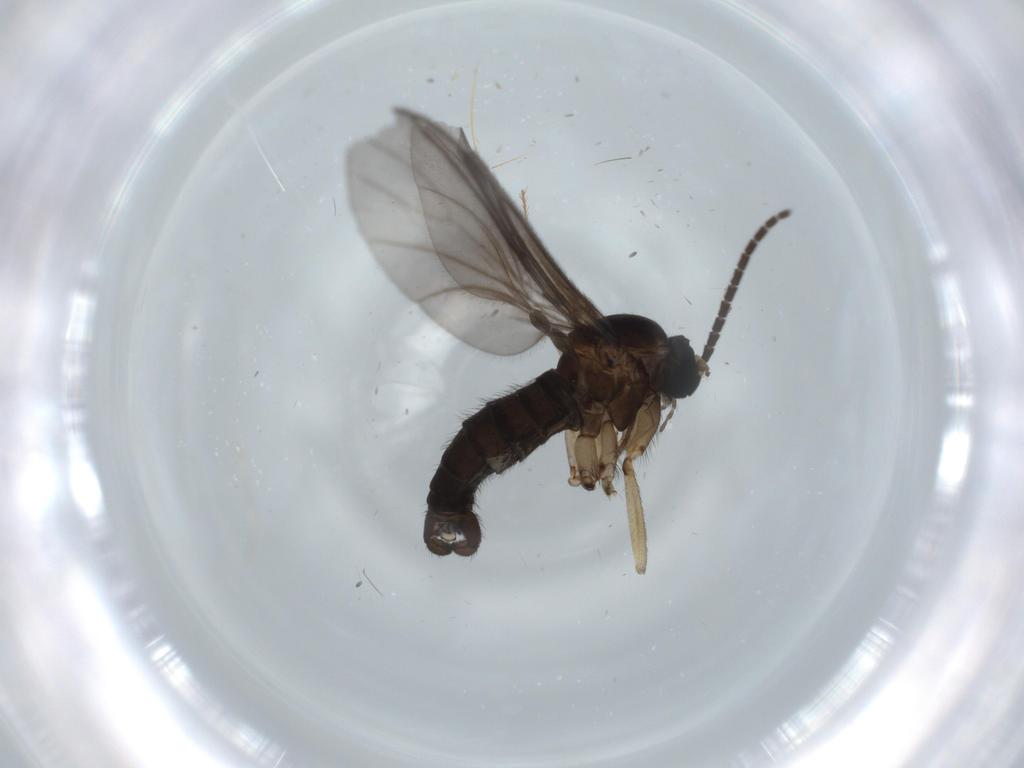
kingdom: Animalia
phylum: Arthropoda
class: Insecta
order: Diptera
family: Sciaridae
